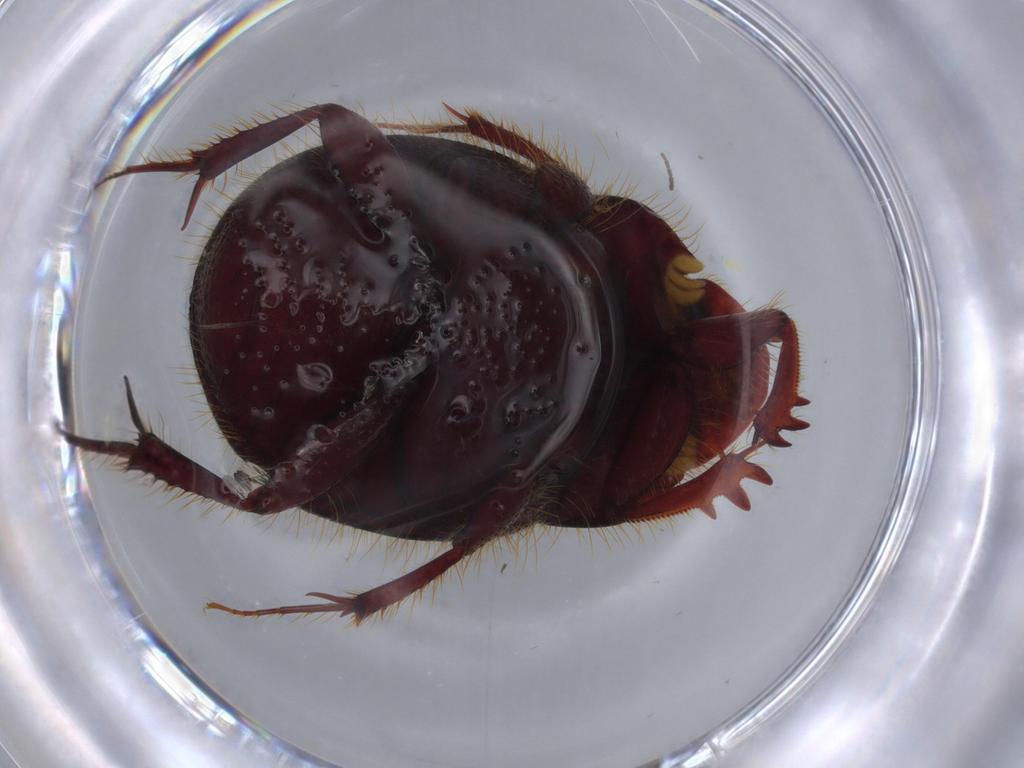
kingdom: Animalia
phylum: Arthropoda
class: Insecta
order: Coleoptera
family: Scarabaeidae
